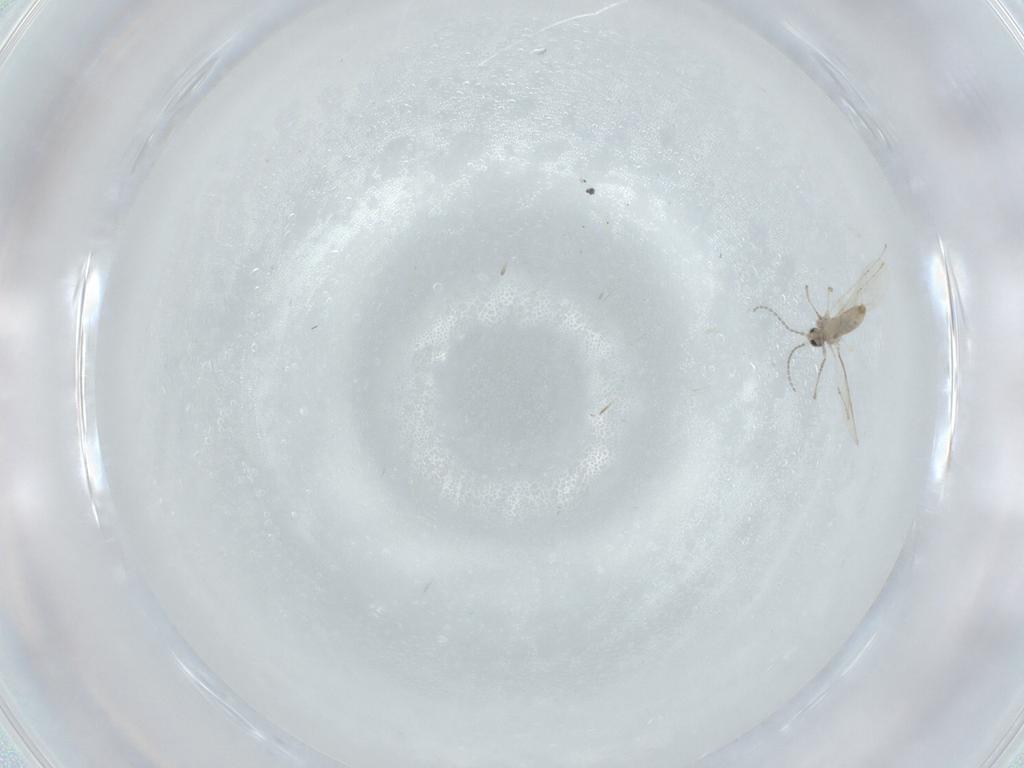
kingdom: Animalia
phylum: Arthropoda
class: Insecta
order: Diptera
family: Cecidomyiidae
